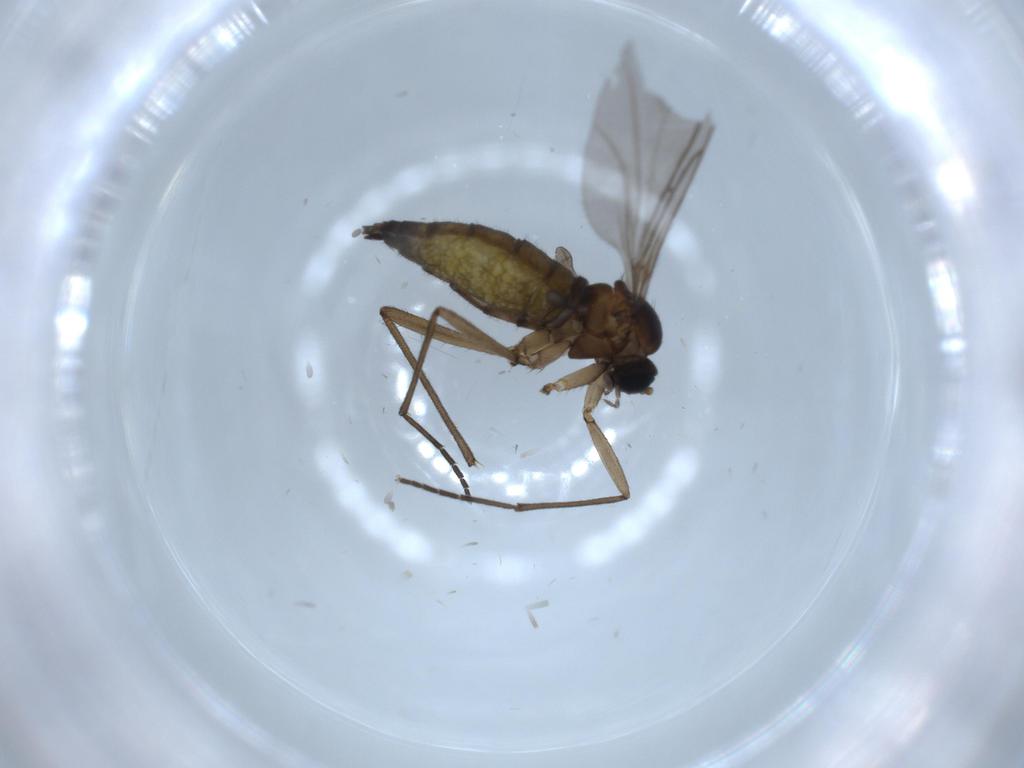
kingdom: Animalia
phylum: Arthropoda
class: Insecta
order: Diptera
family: Sciaridae
